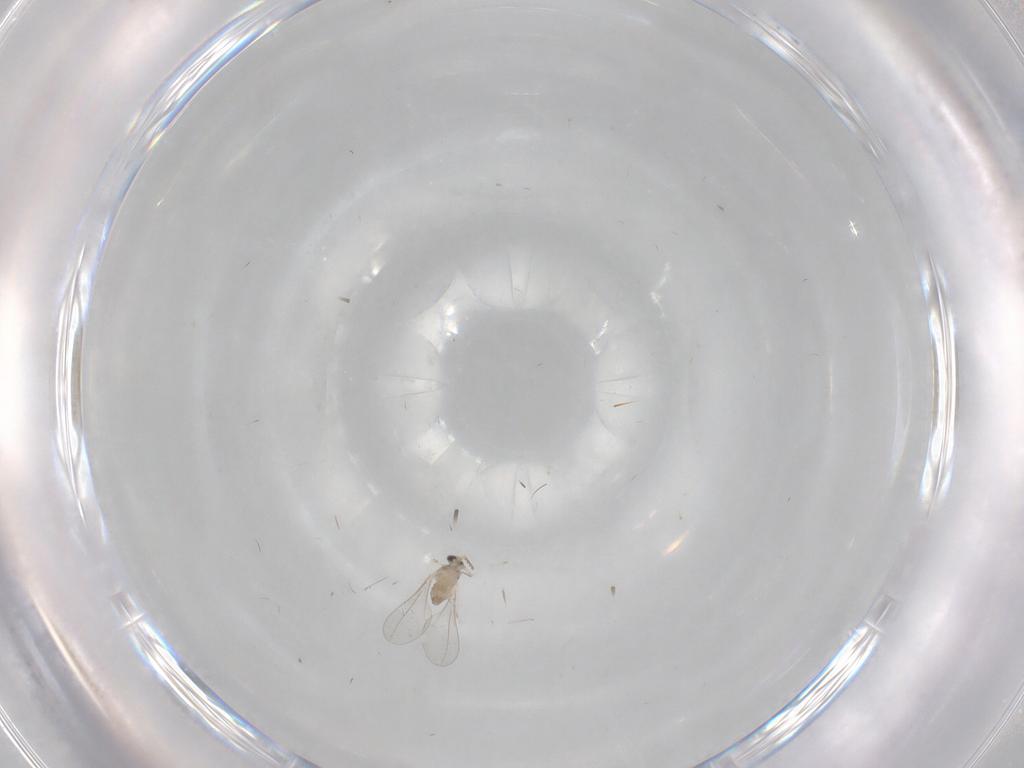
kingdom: Animalia
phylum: Arthropoda
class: Insecta
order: Diptera
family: Cecidomyiidae
